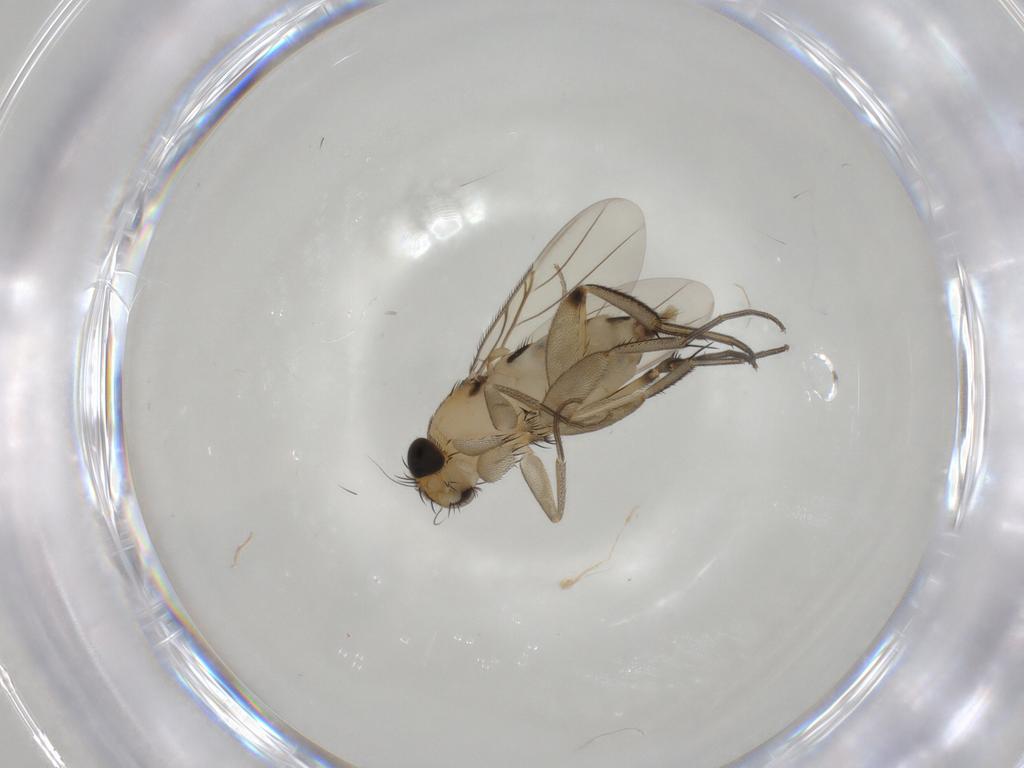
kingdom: Animalia
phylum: Arthropoda
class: Insecta
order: Diptera
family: Phoridae
